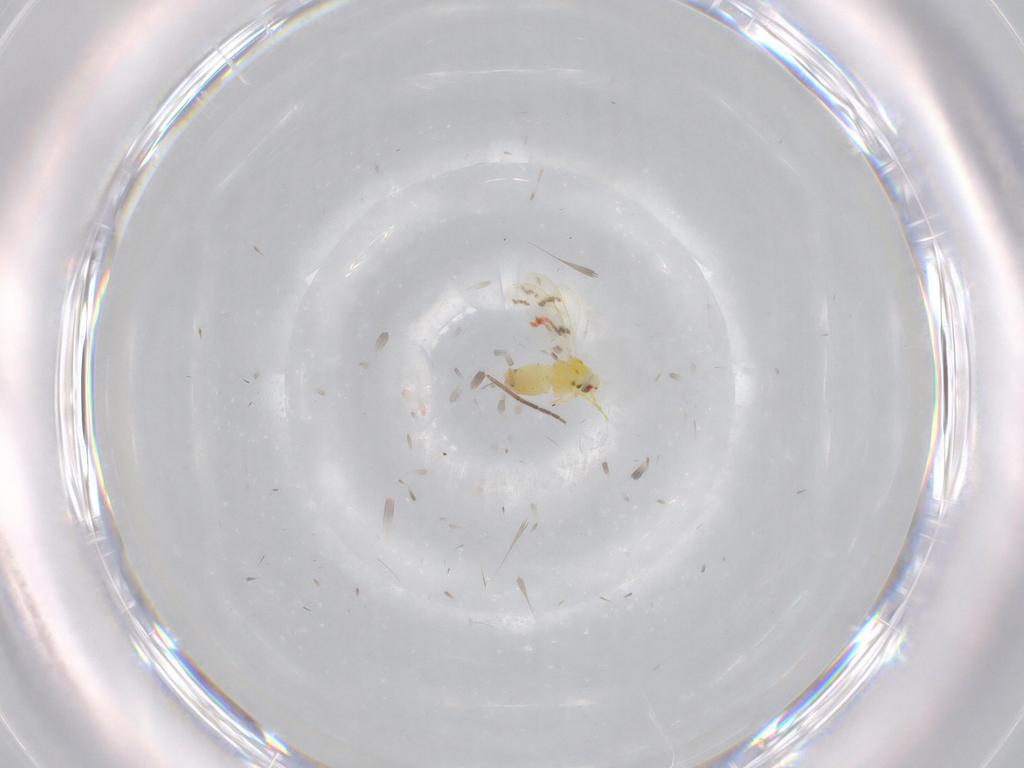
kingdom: Animalia
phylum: Arthropoda
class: Insecta
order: Hemiptera
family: Aleyrodidae
